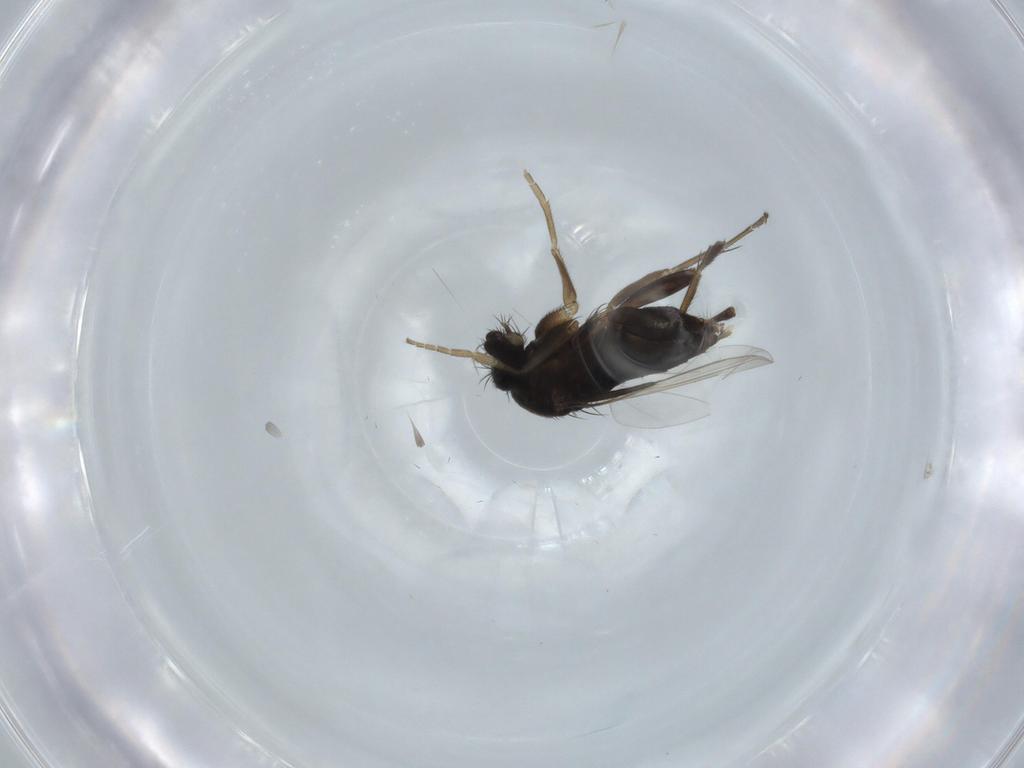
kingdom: Animalia
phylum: Arthropoda
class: Insecta
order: Diptera
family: Phoridae
